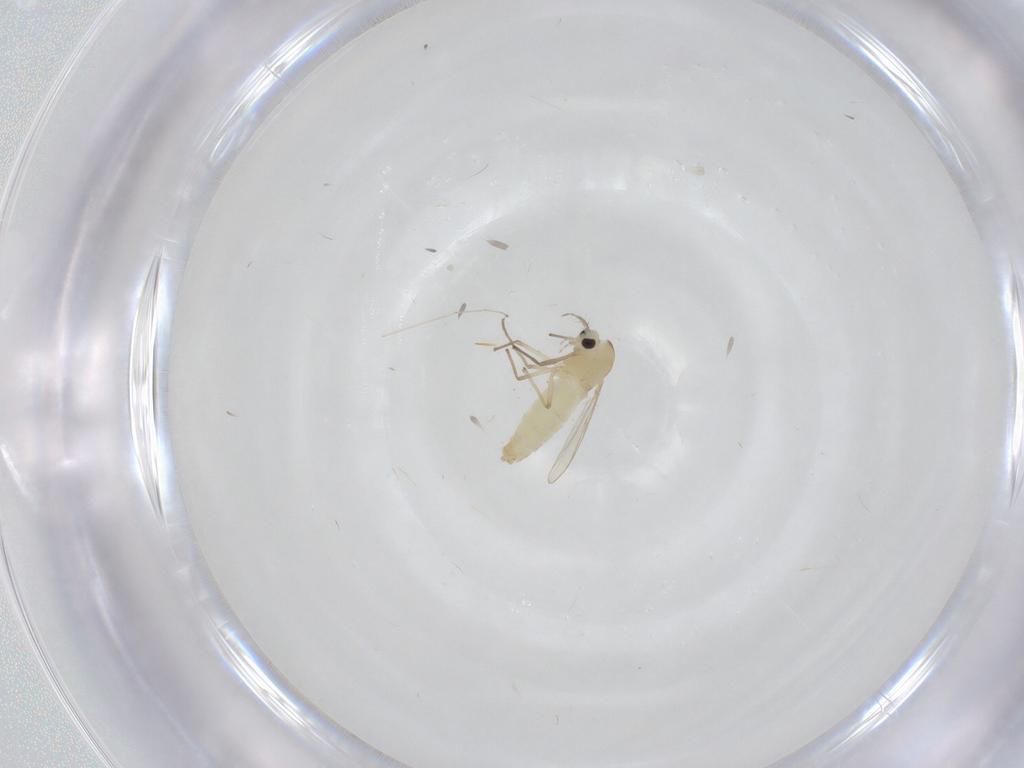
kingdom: Animalia
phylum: Arthropoda
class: Insecta
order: Diptera
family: Chironomidae
